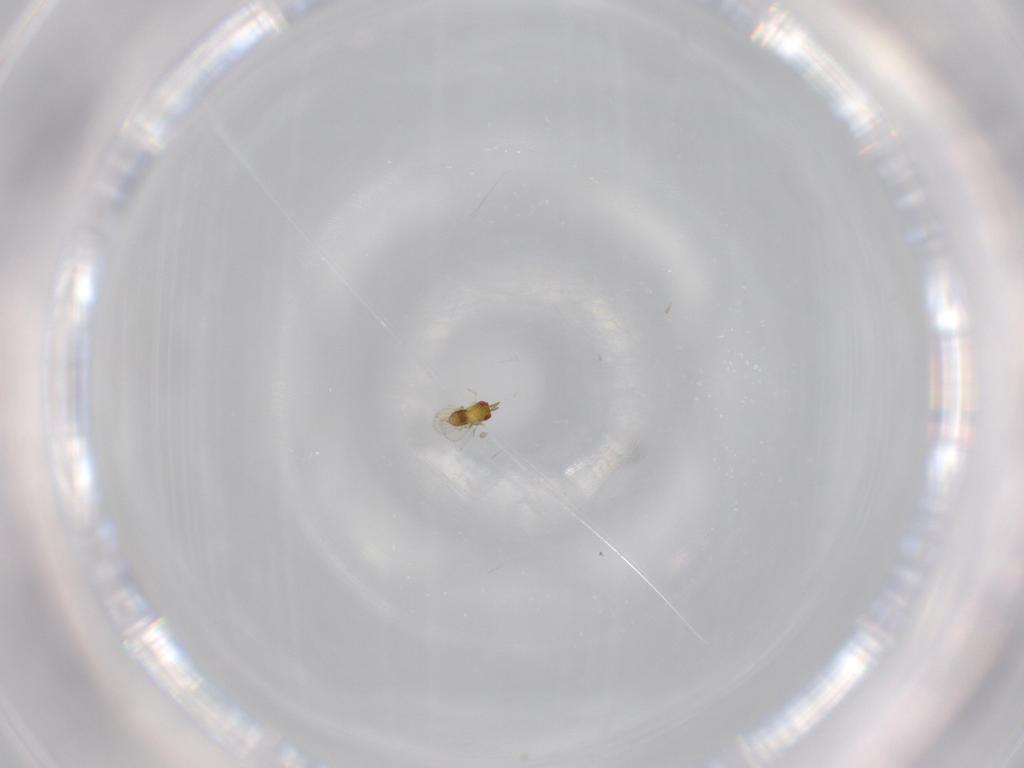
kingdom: Animalia
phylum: Arthropoda
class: Insecta
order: Hymenoptera
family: Trichogrammatidae
